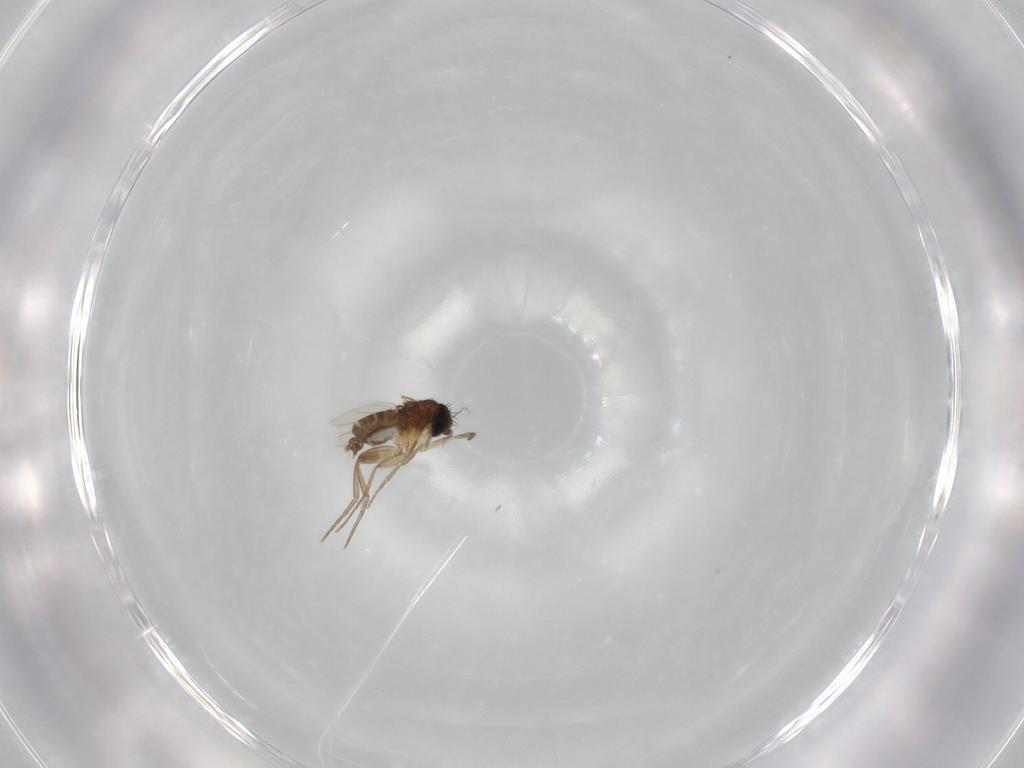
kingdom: Animalia
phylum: Arthropoda
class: Insecta
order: Diptera
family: Phoridae
